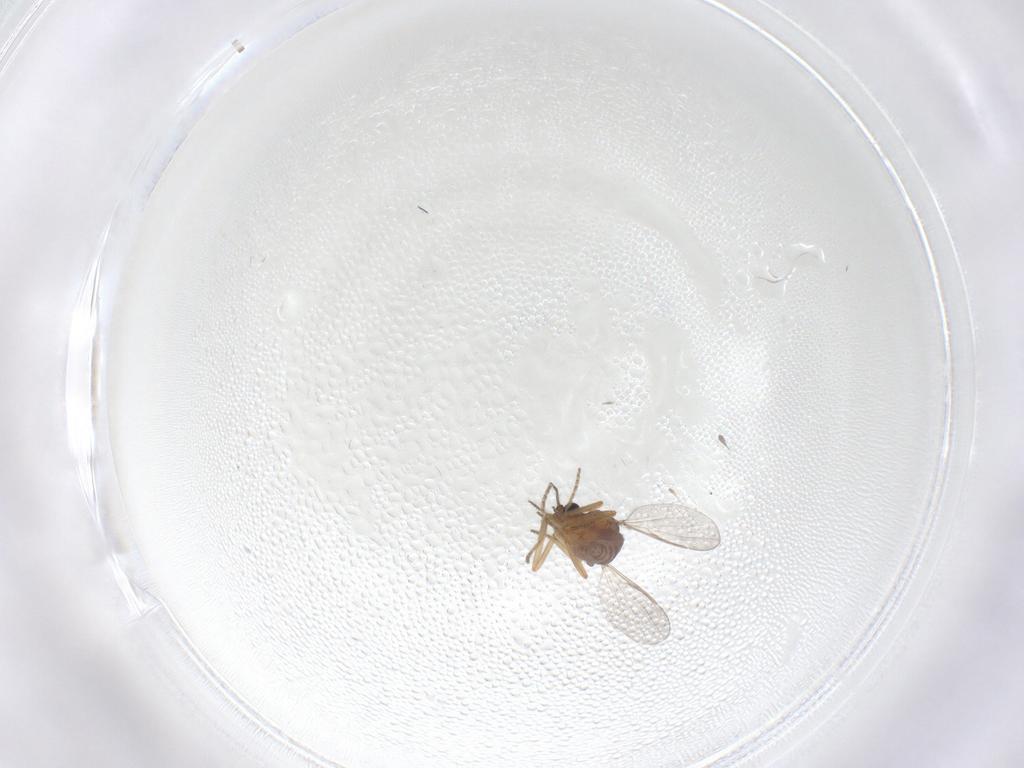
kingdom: Animalia
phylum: Arthropoda
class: Insecta
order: Diptera
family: Ceratopogonidae
